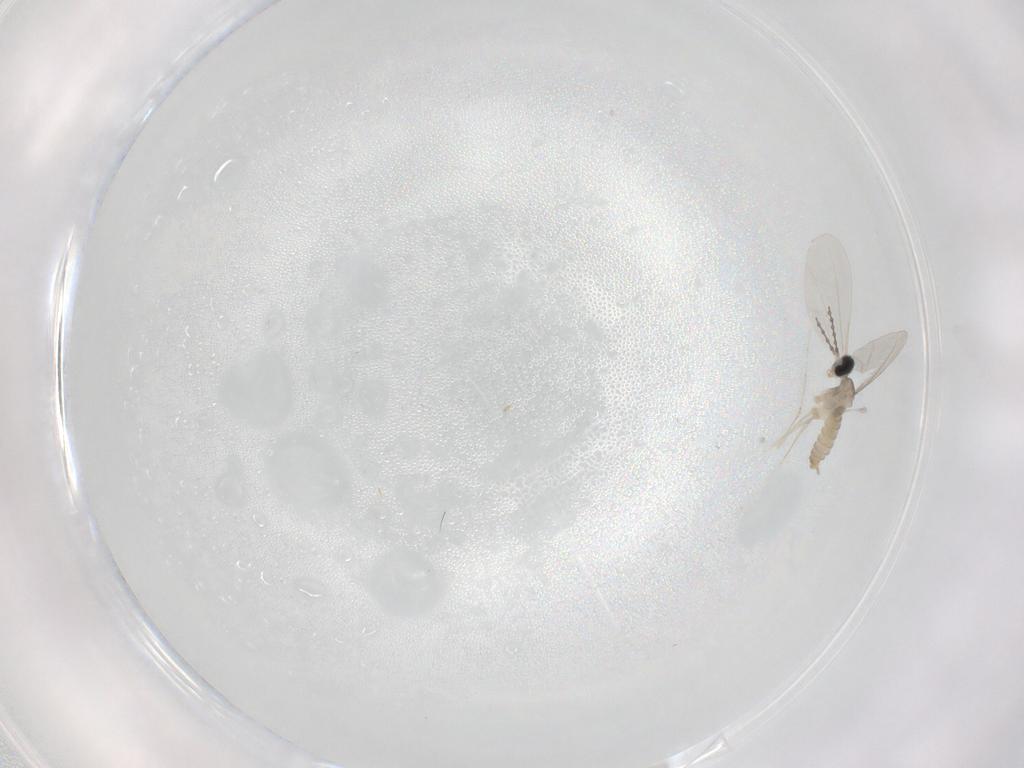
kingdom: Animalia
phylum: Arthropoda
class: Insecta
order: Diptera
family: Cecidomyiidae
